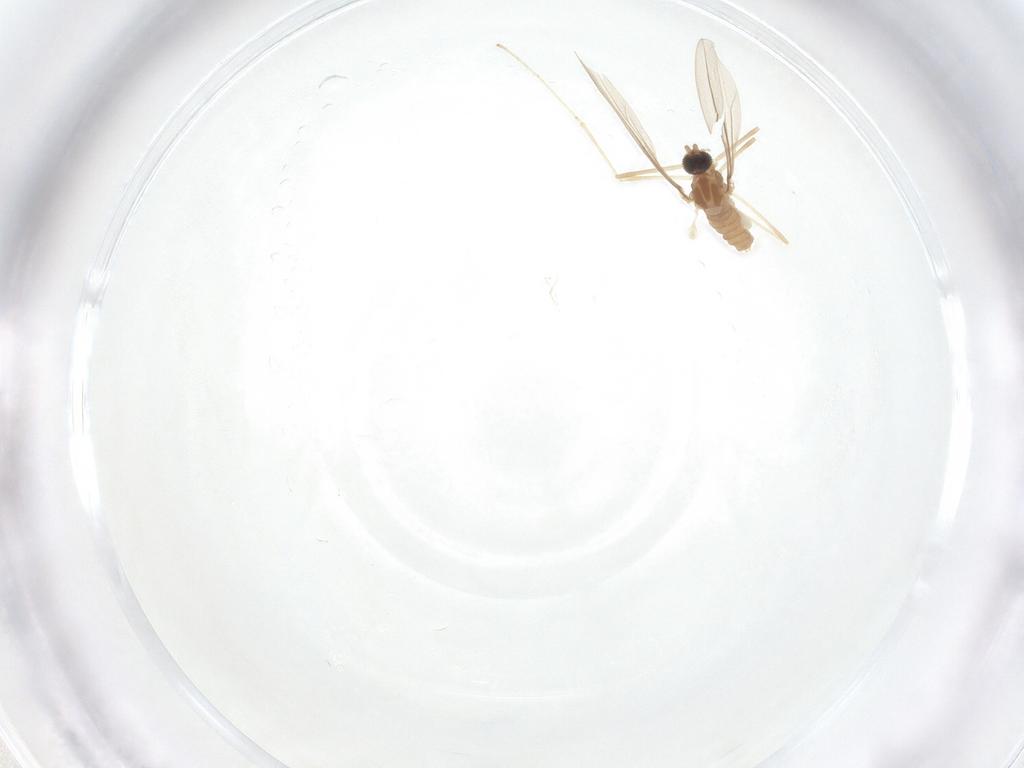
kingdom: Animalia
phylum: Arthropoda
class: Insecta
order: Diptera
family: Cecidomyiidae
